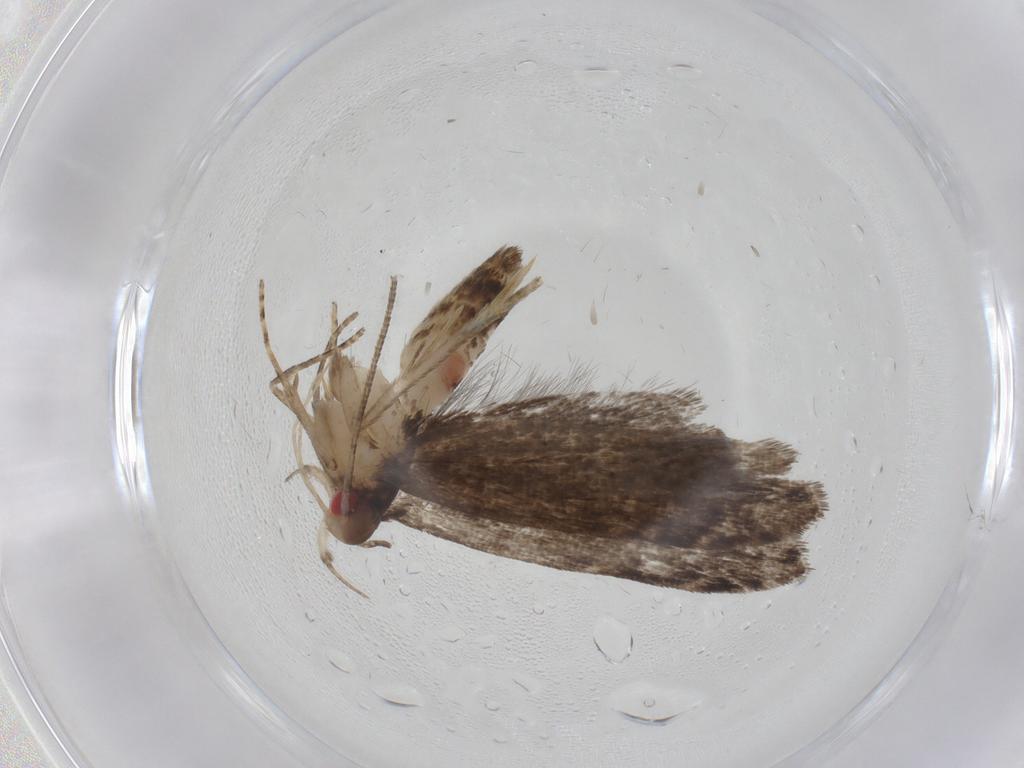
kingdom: Animalia
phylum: Arthropoda
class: Insecta
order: Lepidoptera
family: Gelechiidae
